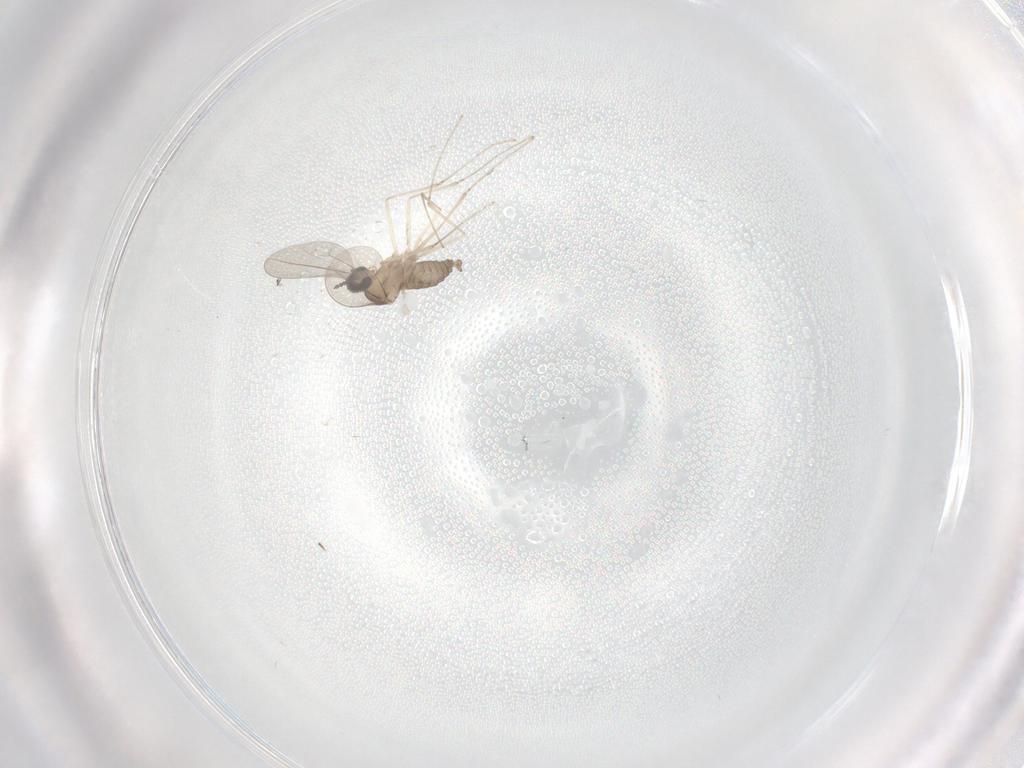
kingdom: Animalia
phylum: Arthropoda
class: Insecta
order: Diptera
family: Cecidomyiidae
